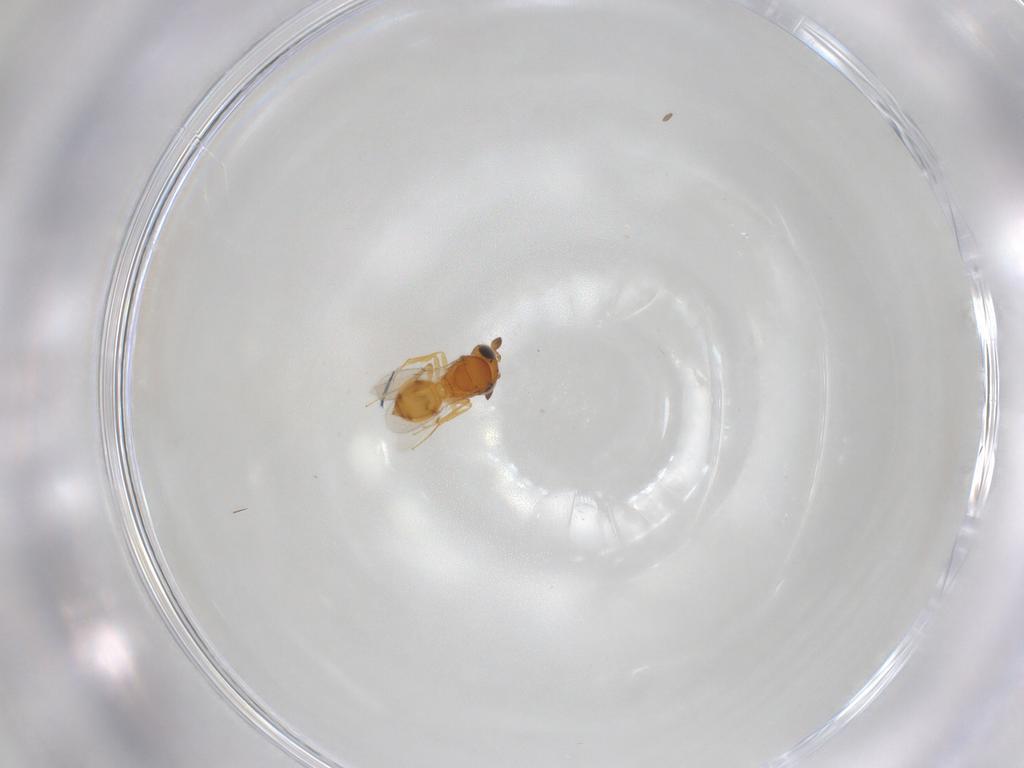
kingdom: Animalia
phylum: Arthropoda
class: Insecta
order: Hymenoptera
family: Scelionidae
